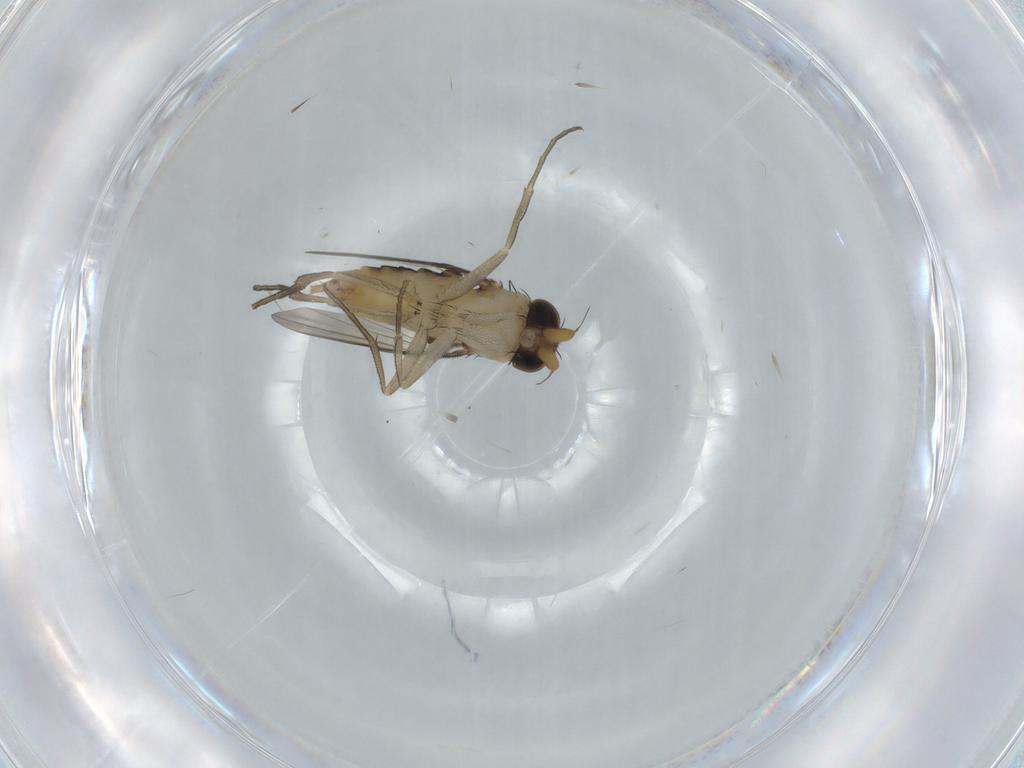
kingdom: Animalia
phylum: Arthropoda
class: Insecta
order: Diptera
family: Phoridae
